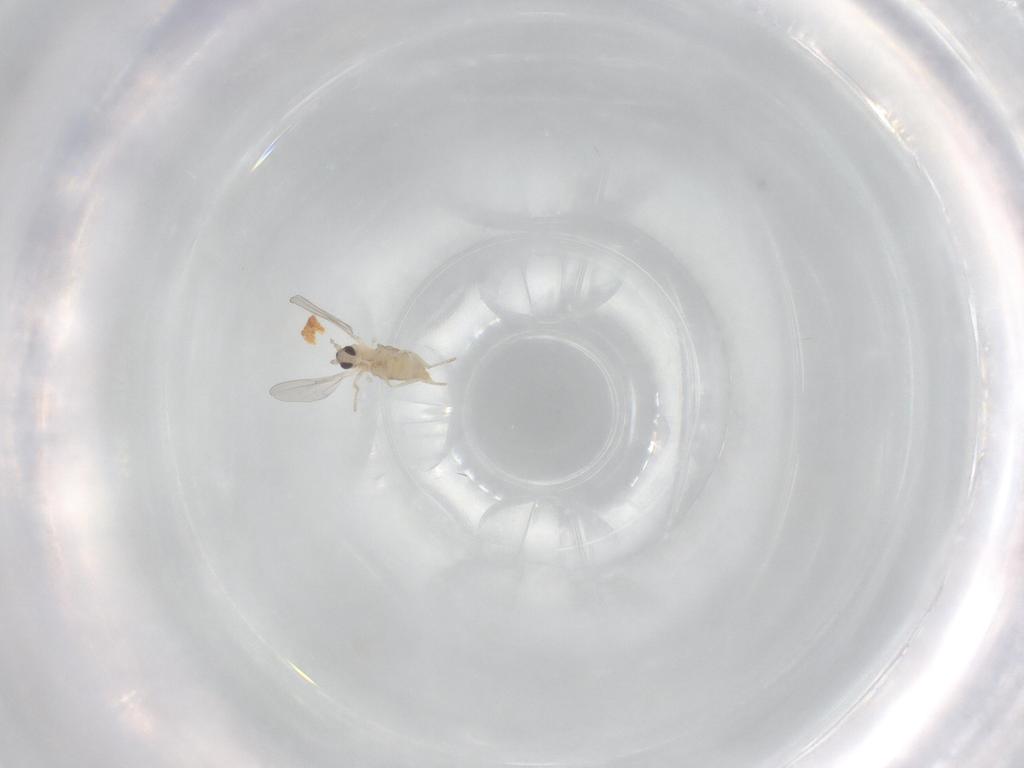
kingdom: Animalia
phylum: Arthropoda
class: Insecta
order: Diptera
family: Cecidomyiidae
